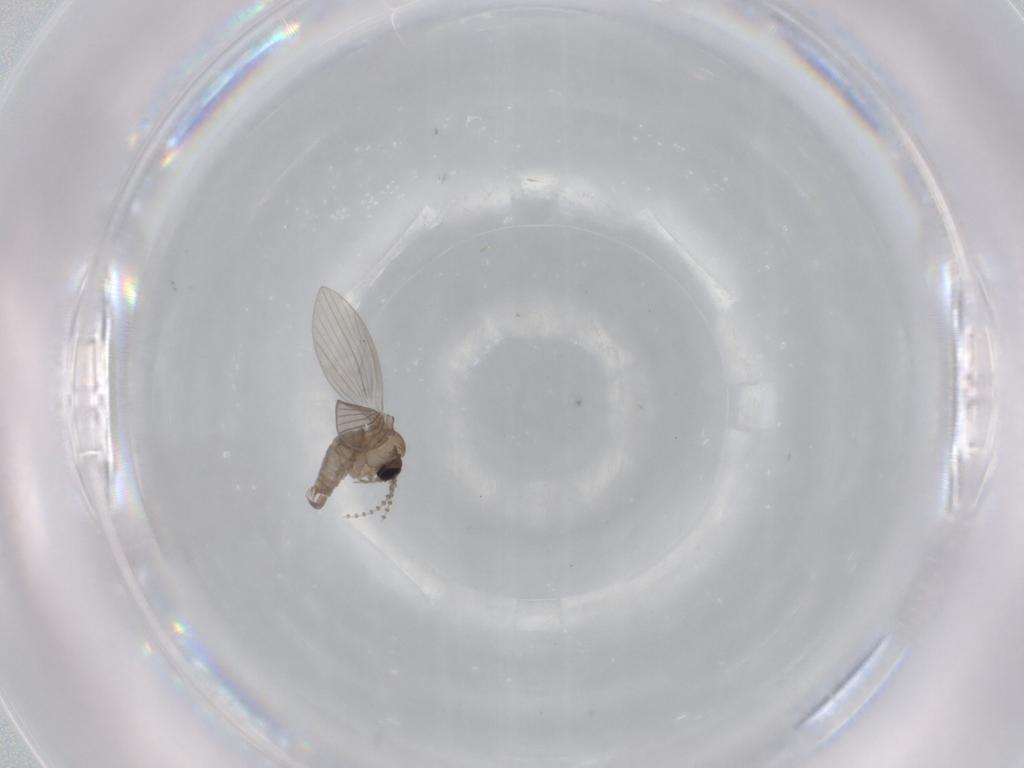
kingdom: Animalia
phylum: Arthropoda
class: Insecta
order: Diptera
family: Psychodidae
